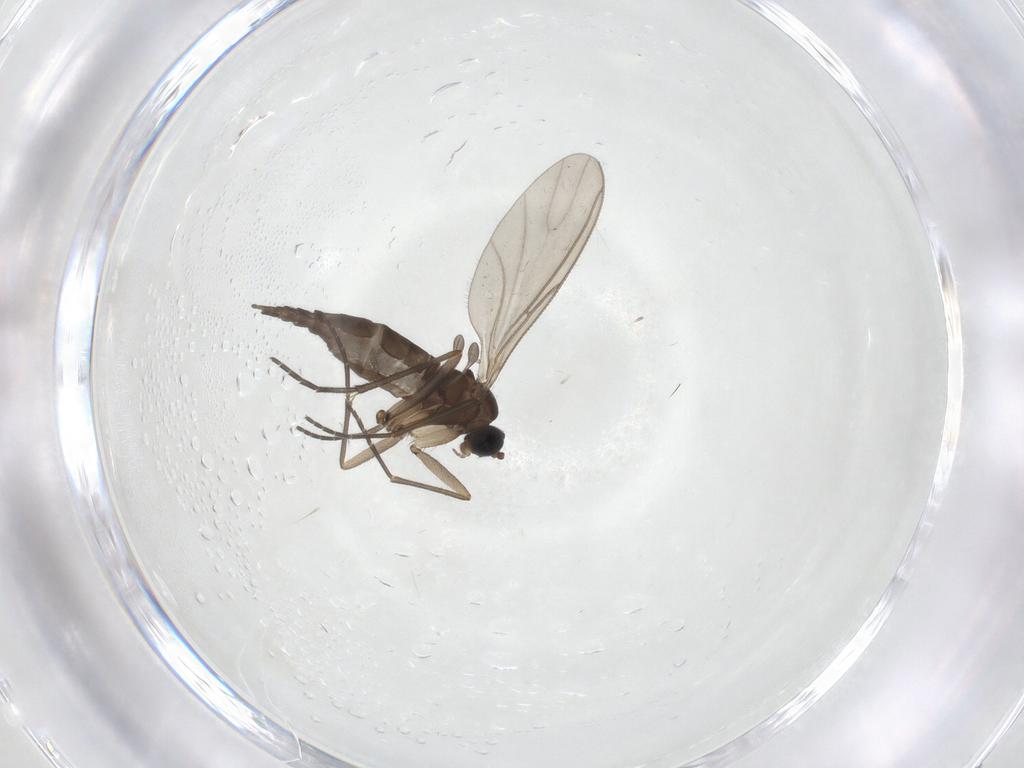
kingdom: Animalia
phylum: Arthropoda
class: Insecta
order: Diptera
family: Sciaridae
